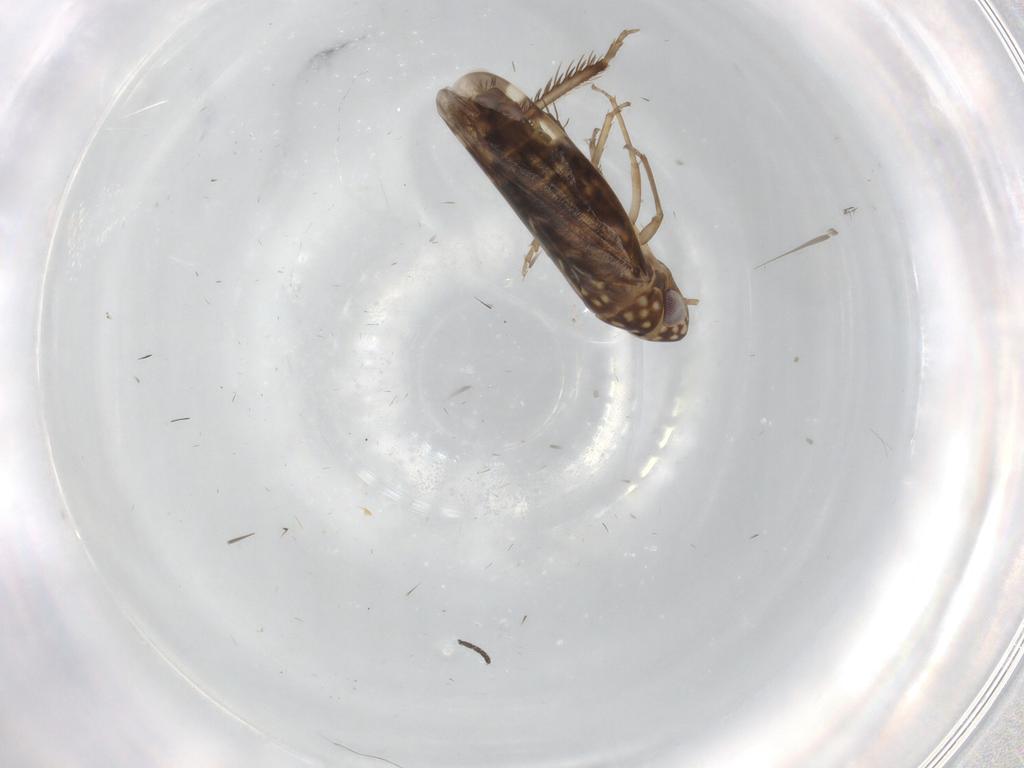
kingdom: Animalia
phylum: Arthropoda
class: Insecta
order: Hemiptera
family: Cicadellidae
